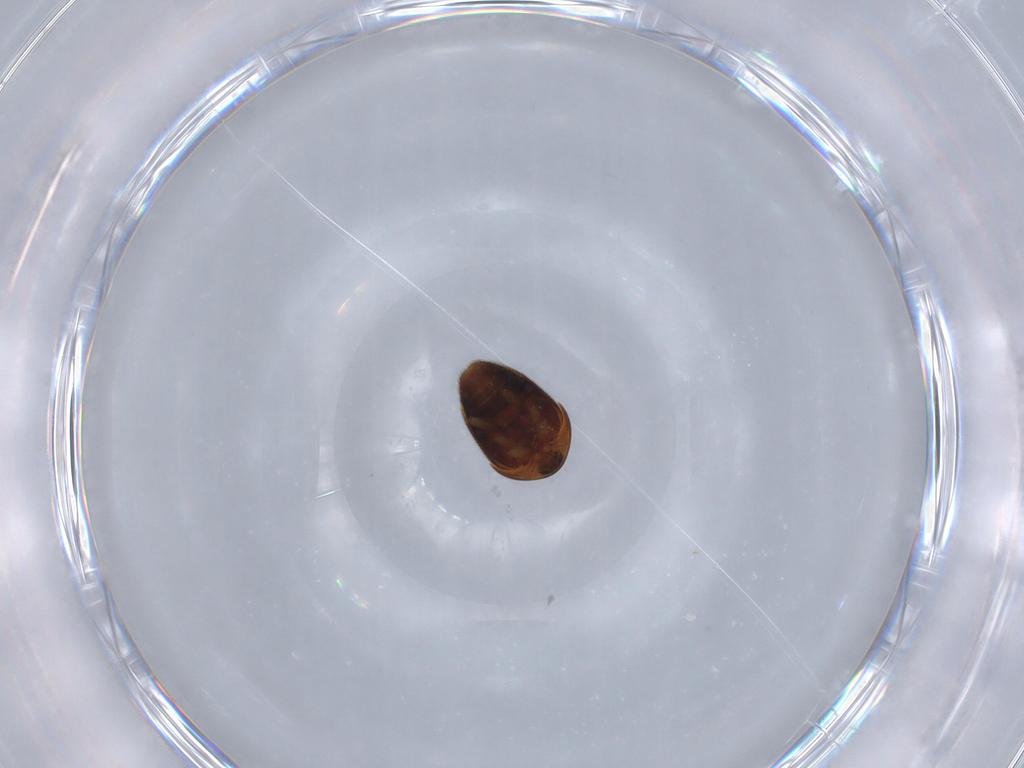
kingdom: Animalia
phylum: Arthropoda
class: Insecta
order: Coleoptera
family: Corylophidae
